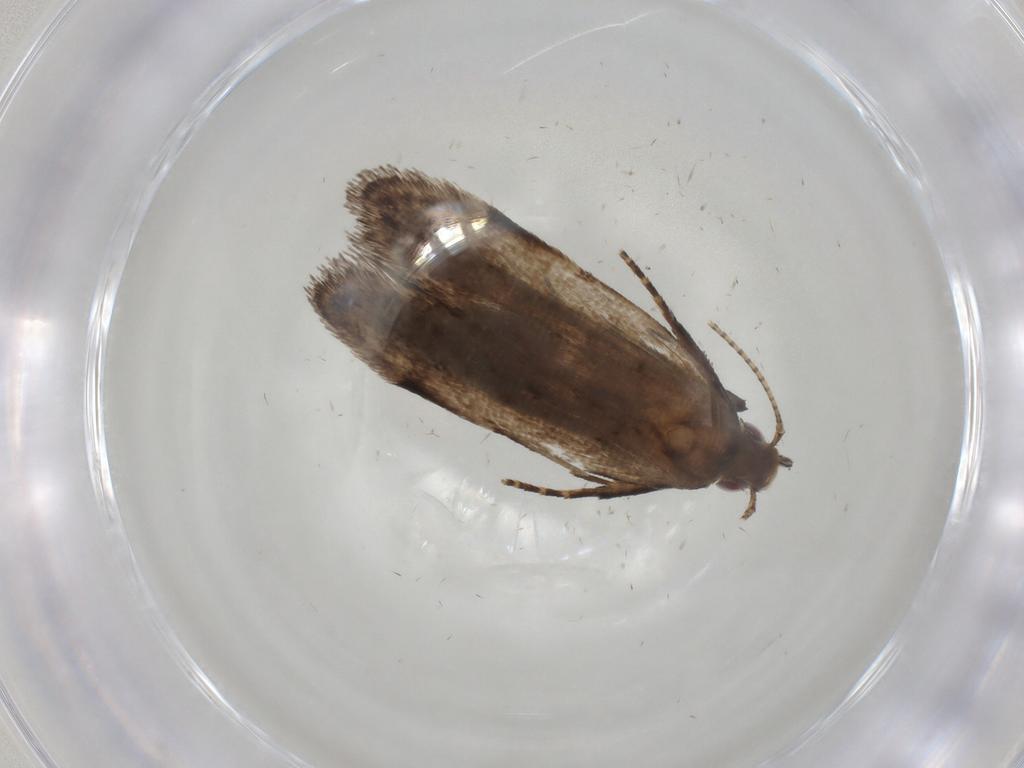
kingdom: Animalia
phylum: Arthropoda
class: Insecta
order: Lepidoptera
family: Gelechiidae
